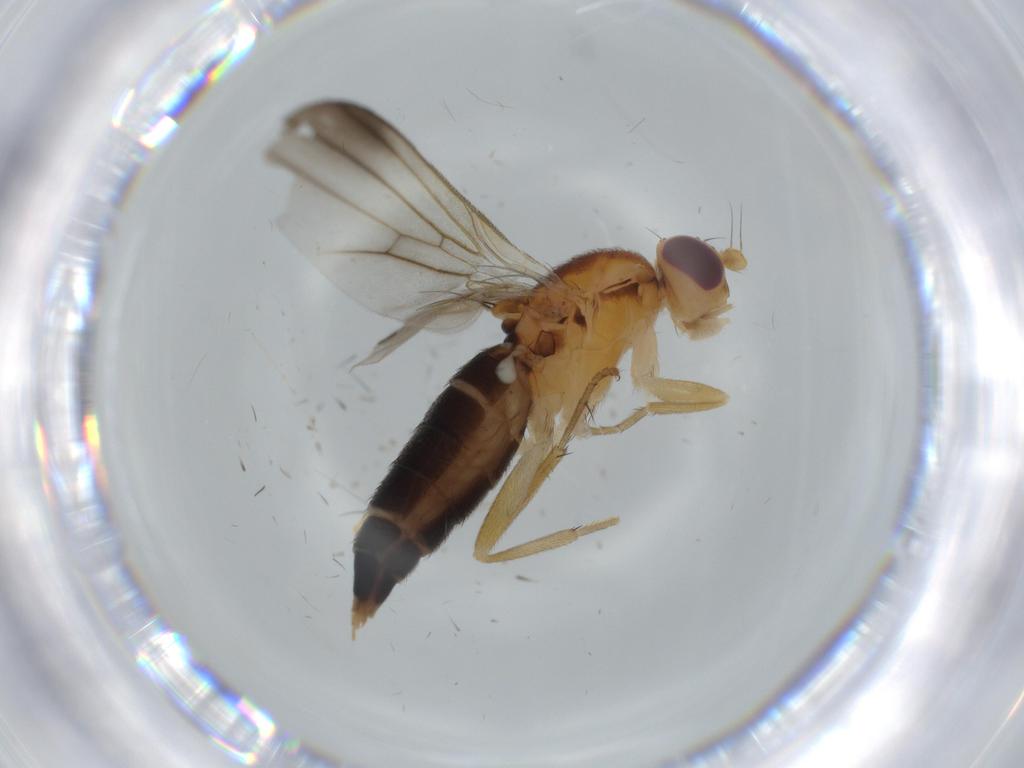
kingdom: Animalia
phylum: Arthropoda
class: Insecta
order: Diptera
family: Clusiidae
